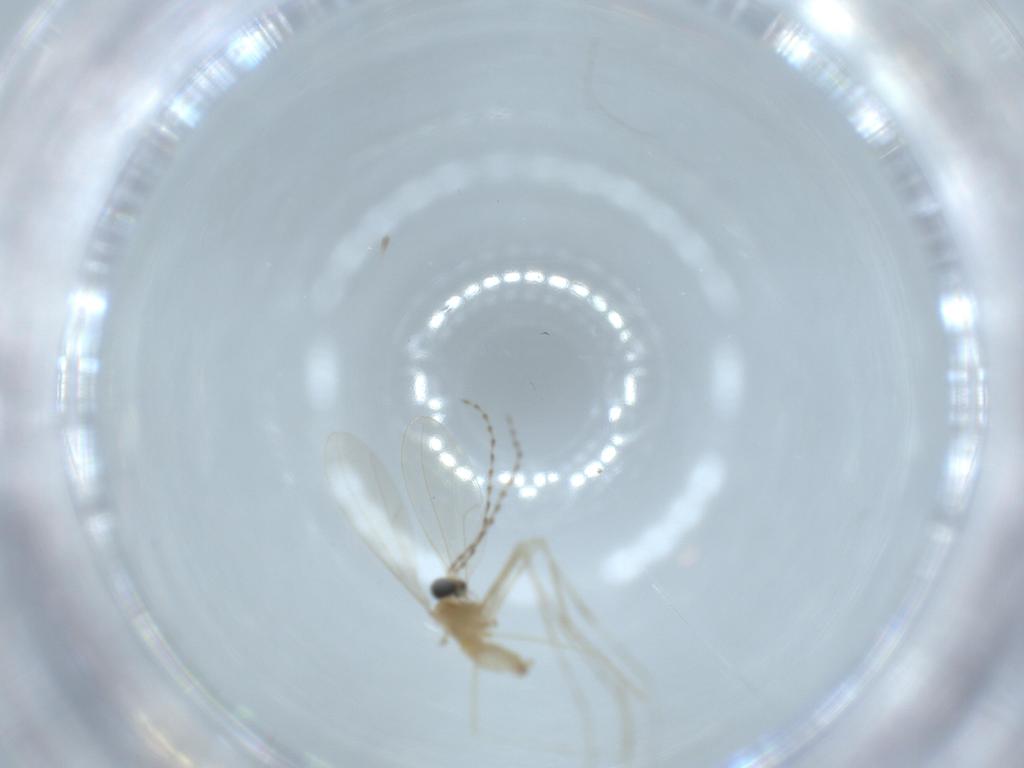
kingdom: Animalia
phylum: Arthropoda
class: Insecta
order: Diptera
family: Cecidomyiidae
